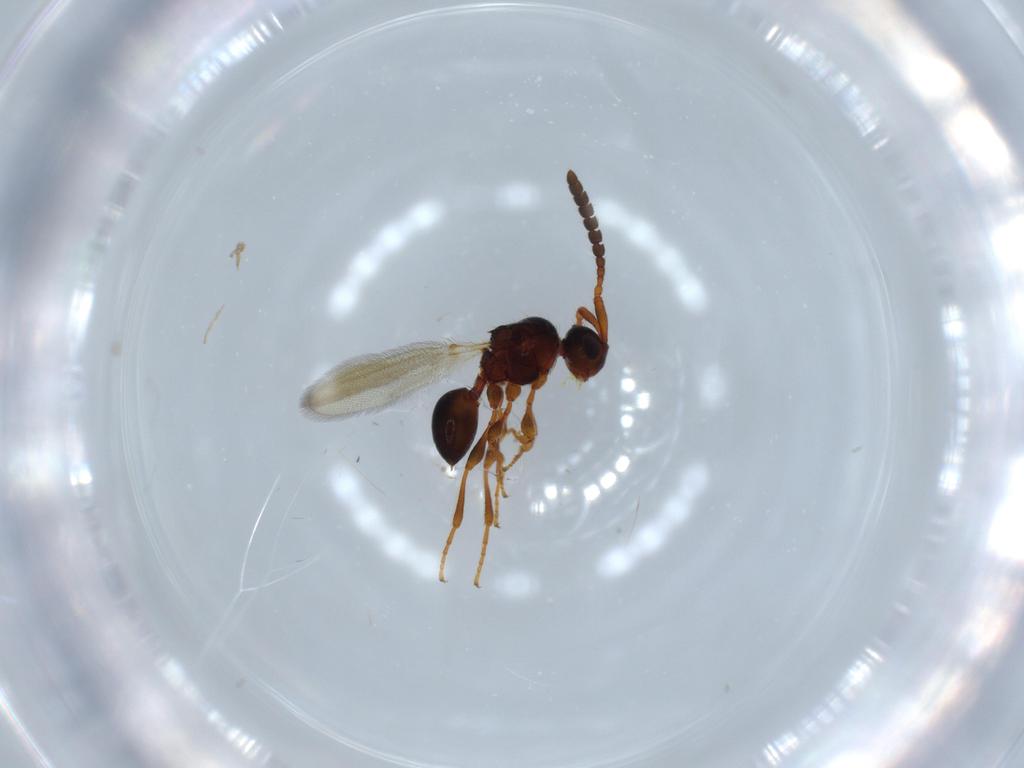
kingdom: Animalia
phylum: Arthropoda
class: Insecta
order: Hymenoptera
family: Diapriidae
